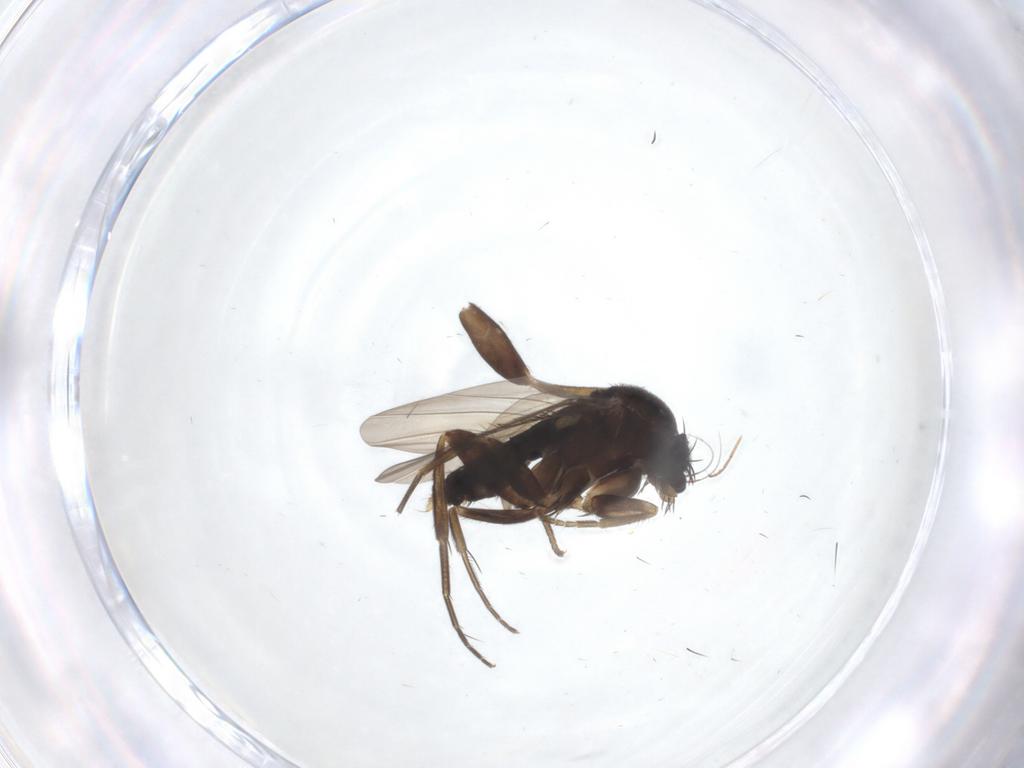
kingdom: Animalia
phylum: Arthropoda
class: Insecta
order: Diptera
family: Phoridae
